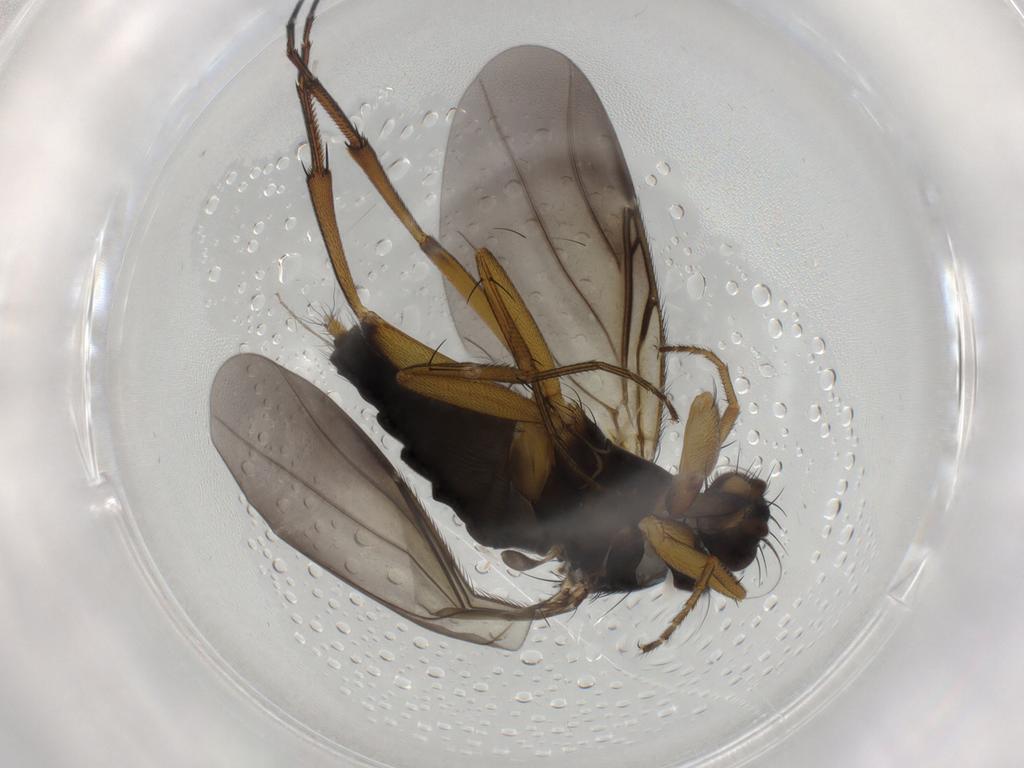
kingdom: Animalia
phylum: Arthropoda
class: Insecta
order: Diptera
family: Phoridae
